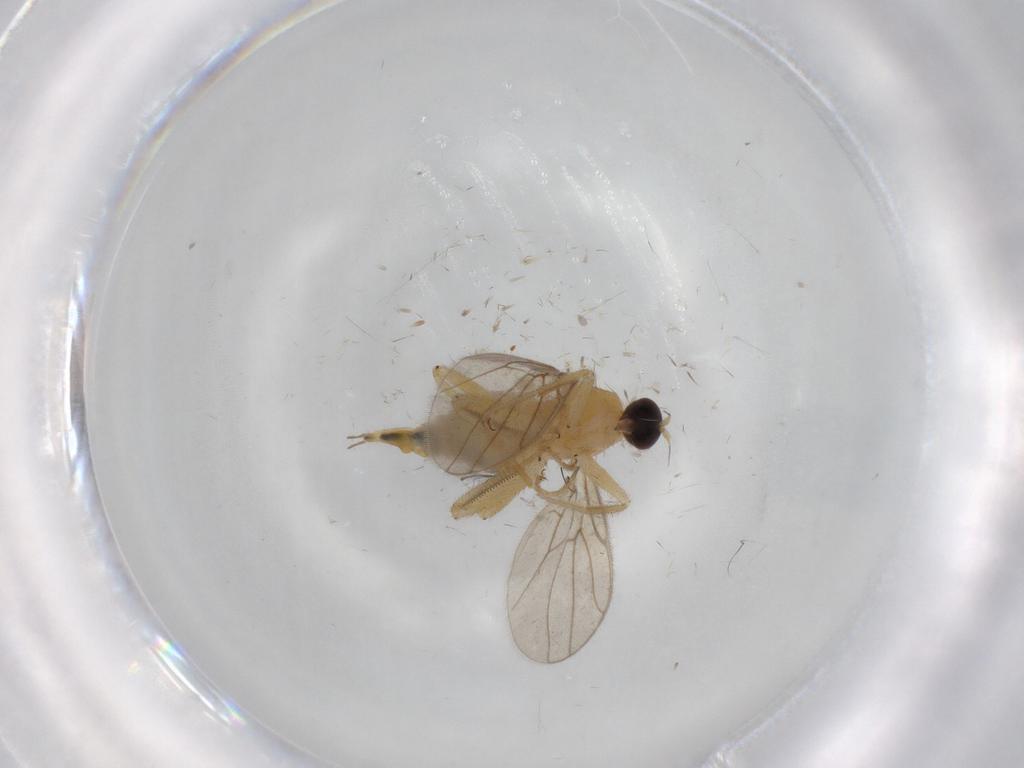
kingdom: Animalia
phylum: Arthropoda
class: Insecta
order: Diptera
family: Hybotidae
